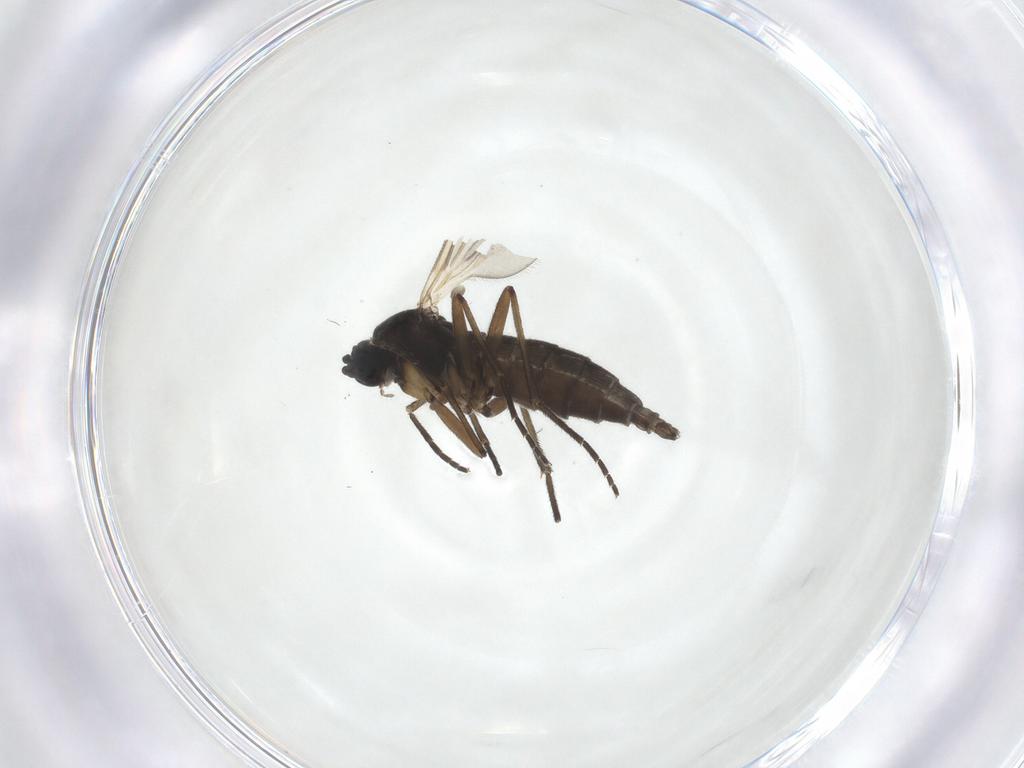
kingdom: Animalia
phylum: Arthropoda
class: Insecta
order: Diptera
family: Sciaridae
